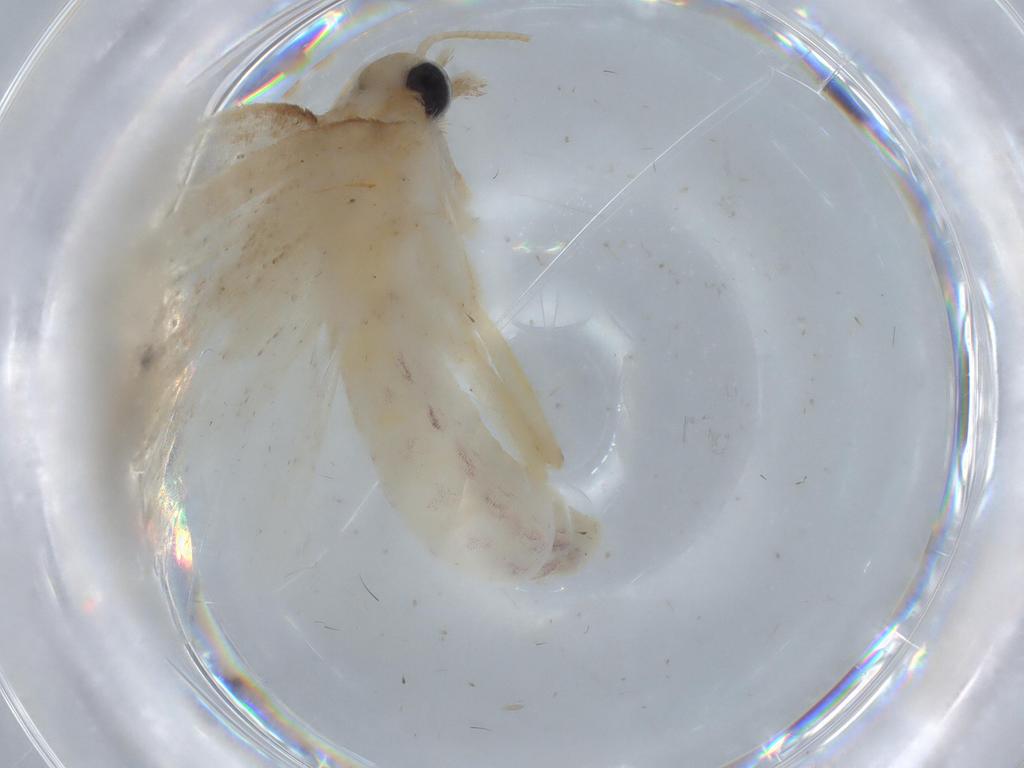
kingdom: Animalia
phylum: Arthropoda
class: Insecta
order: Lepidoptera
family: Crambidae
